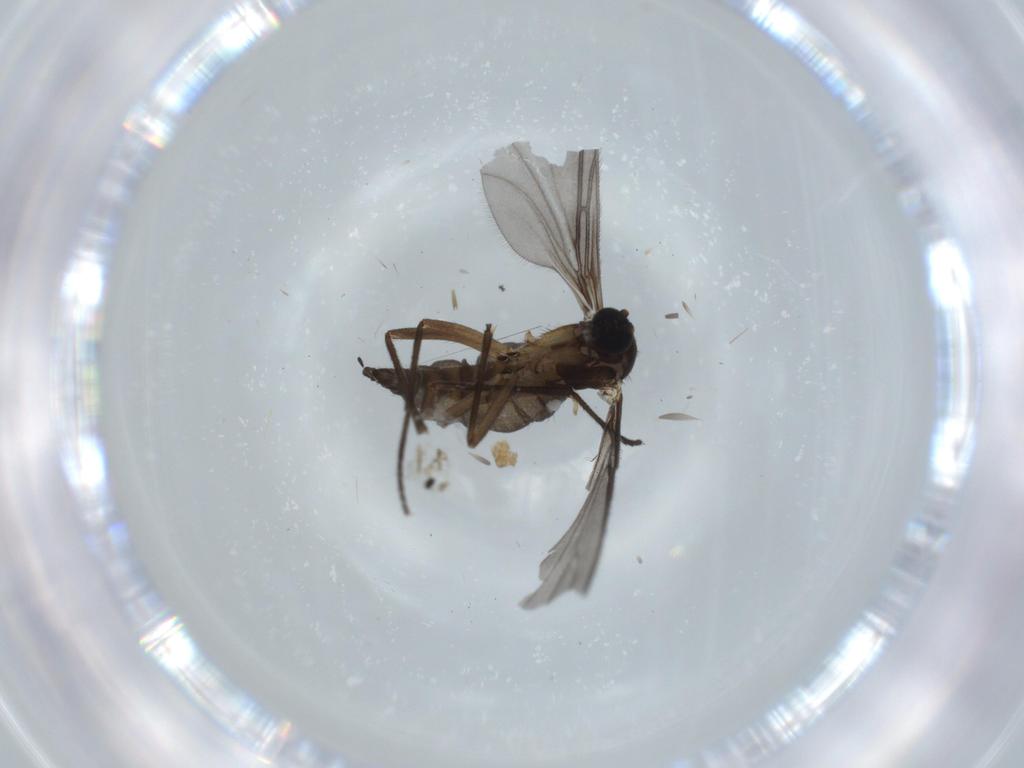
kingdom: Animalia
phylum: Arthropoda
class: Insecta
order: Diptera
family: Sciaridae
